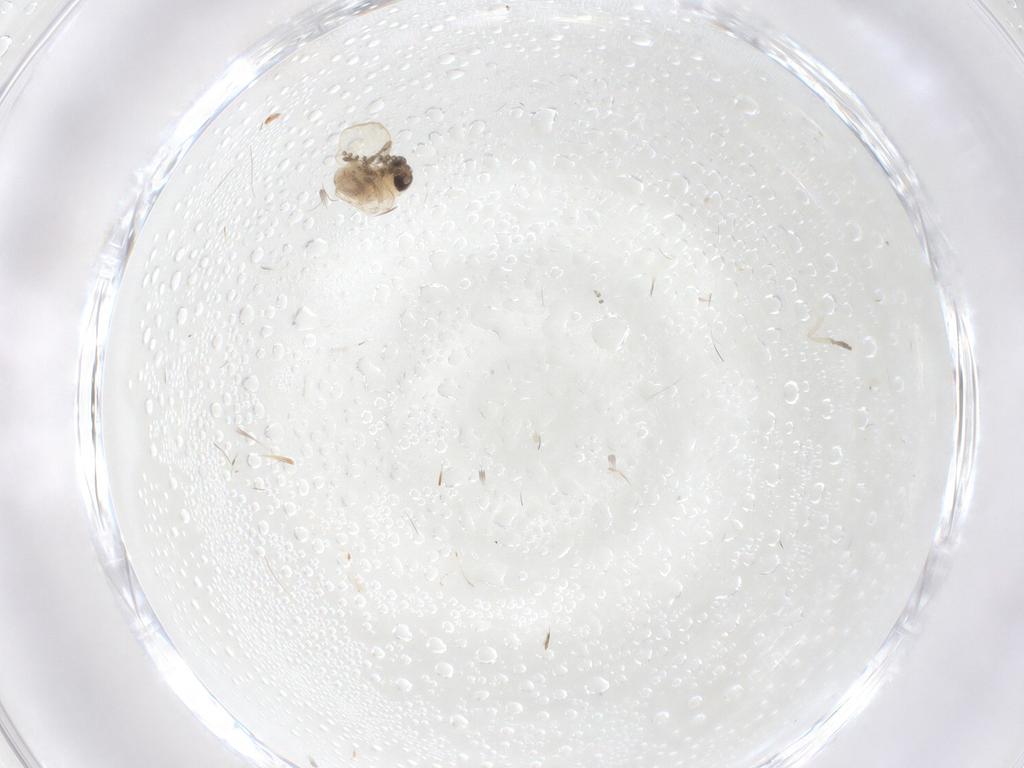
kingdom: Animalia
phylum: Arthropoda
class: Insecta
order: Diptera
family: Psychodidae
